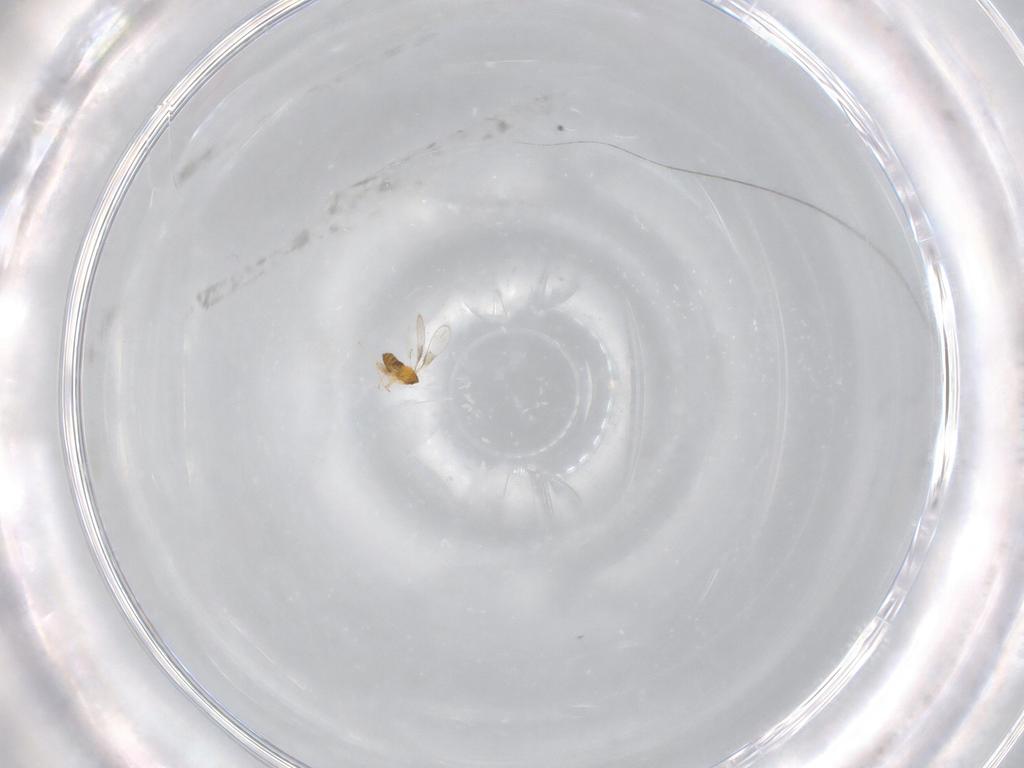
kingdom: Animalia
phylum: Arthropoda
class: Insecta
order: Hymenoptera
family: Trichogrammatidae
